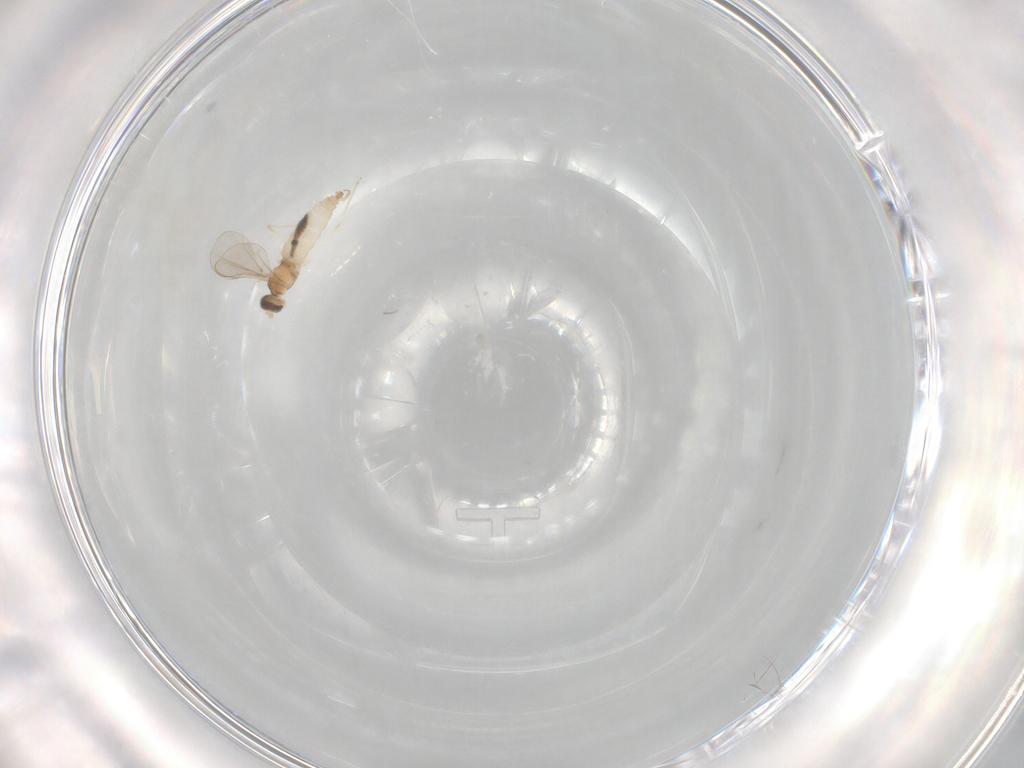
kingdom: Animalia
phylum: Arthropoda
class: Insecta
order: Diptera
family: Cecidomyiidae
